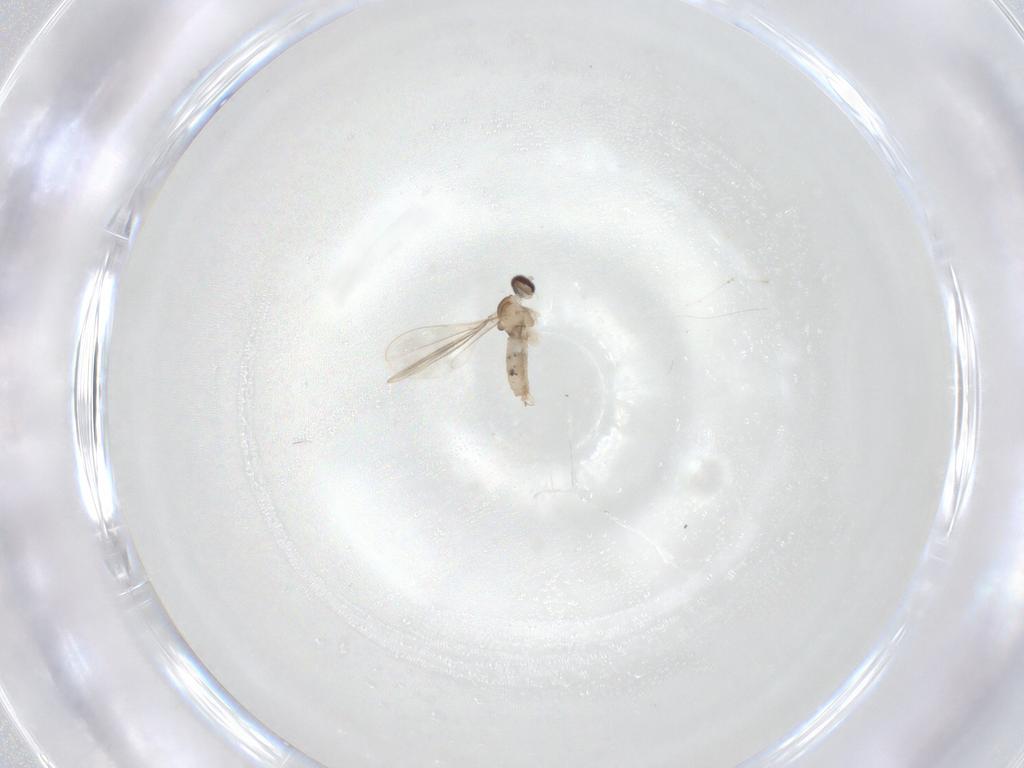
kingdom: Animalia
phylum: Arthropoda
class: Insecta
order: Diptera
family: Cecidomyiidae
